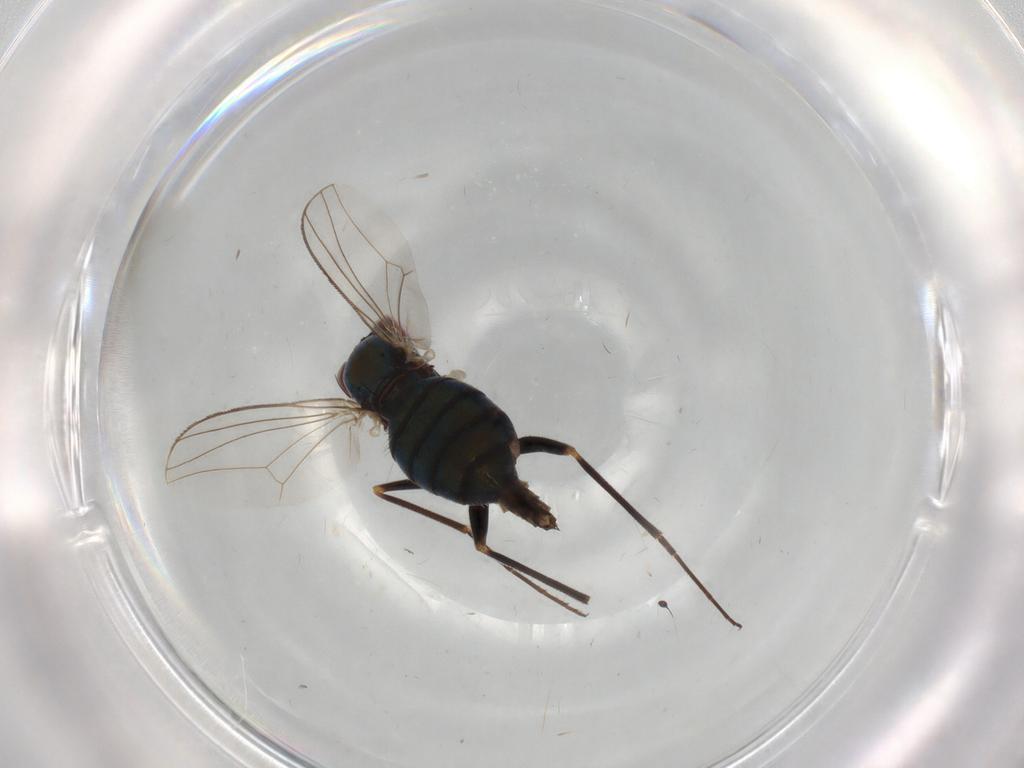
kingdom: Animalia
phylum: Arthropoda
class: Insecta
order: Diptera
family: Dolichopodidae
